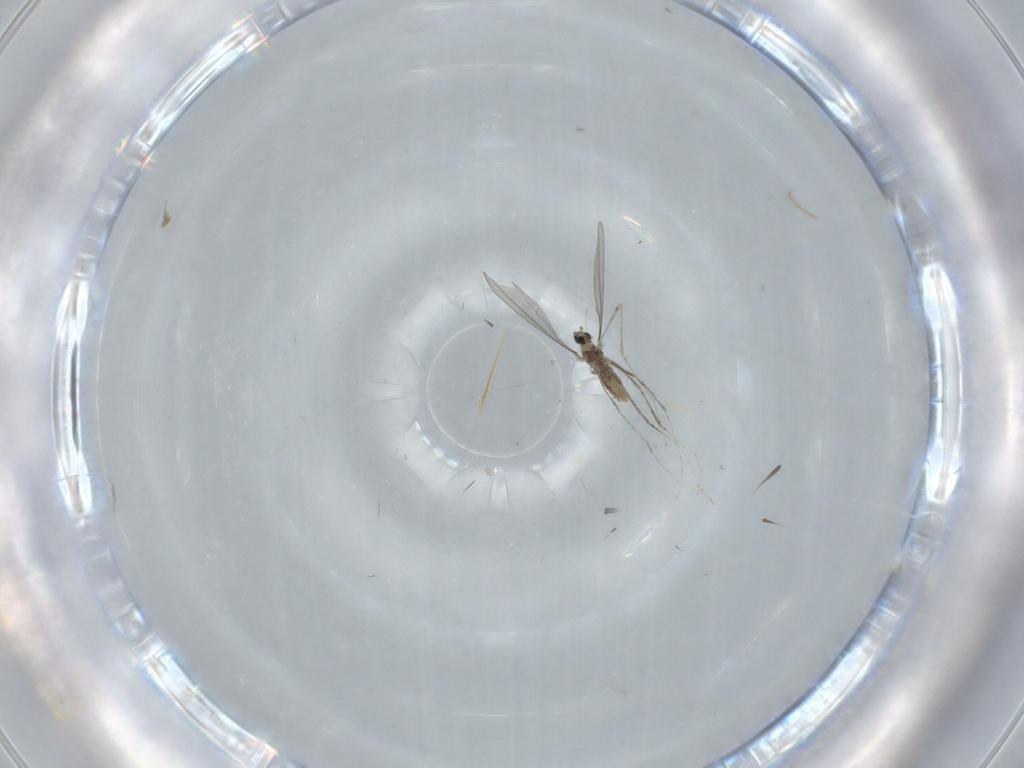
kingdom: Animalia
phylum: Arthropoda
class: Insecta
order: Diptera
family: Cecidomyiidae
